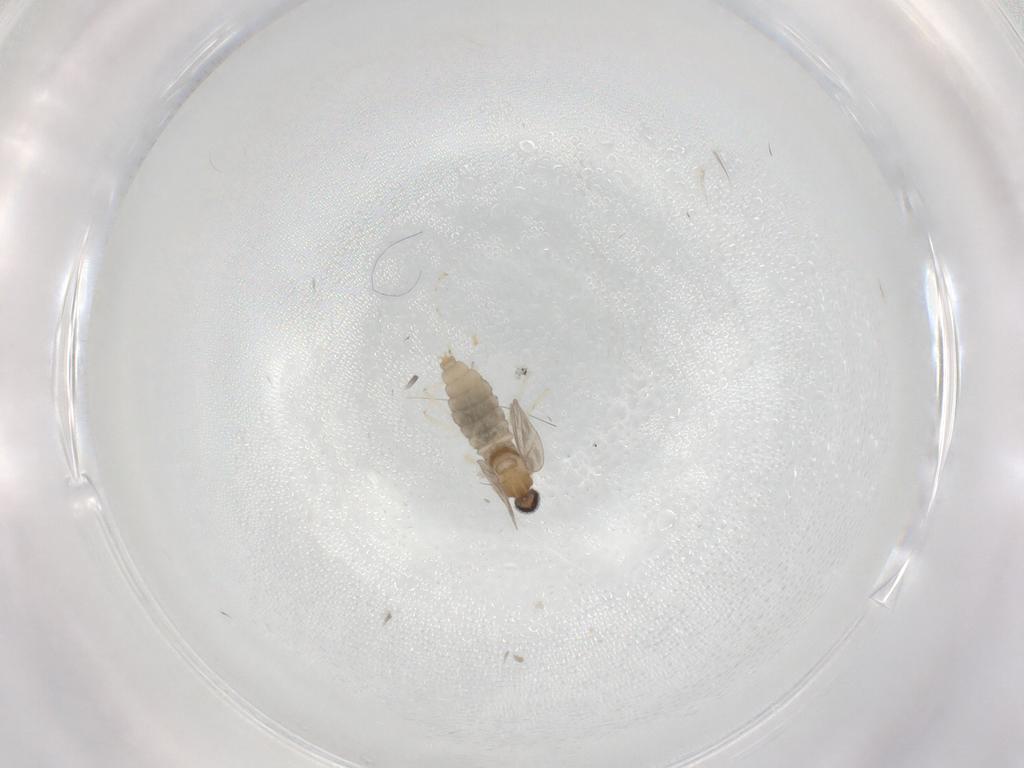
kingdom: Animalia
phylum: Arthropoda
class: Insecta
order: Diptera
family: Cecidomyiidae
